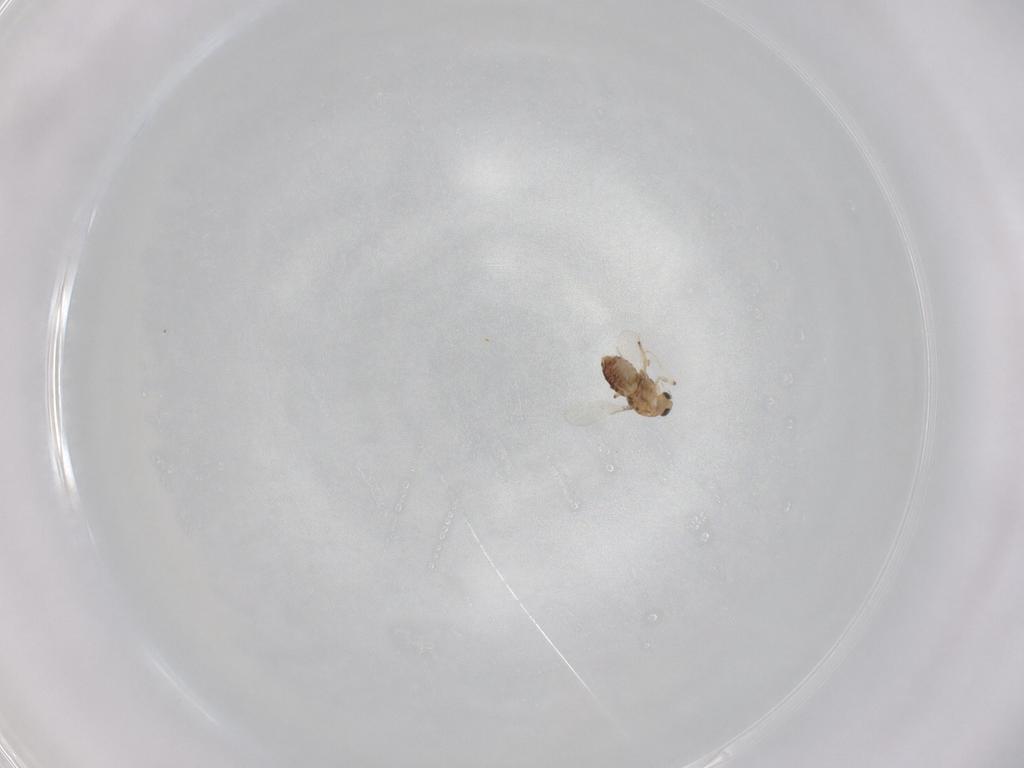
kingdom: Animalia
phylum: Arthropoda
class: Insecta
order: Diptera
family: Chironomidae
